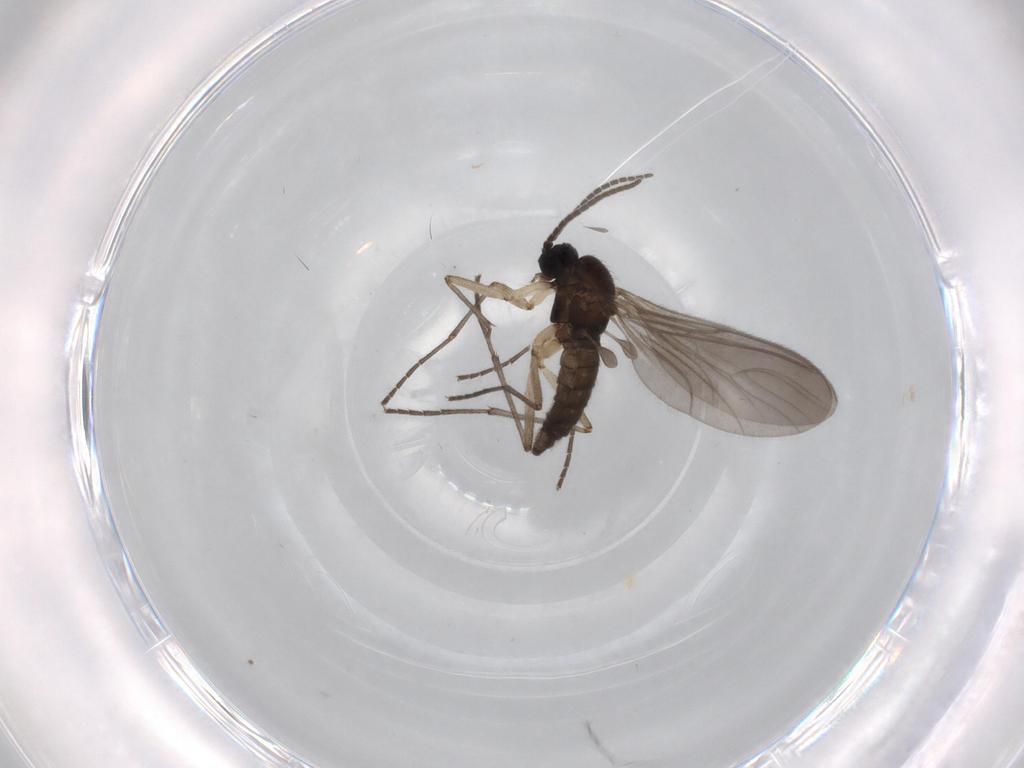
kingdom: Animalia
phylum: Arthropoda
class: Insecta
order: Diptera
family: Sciaridae
